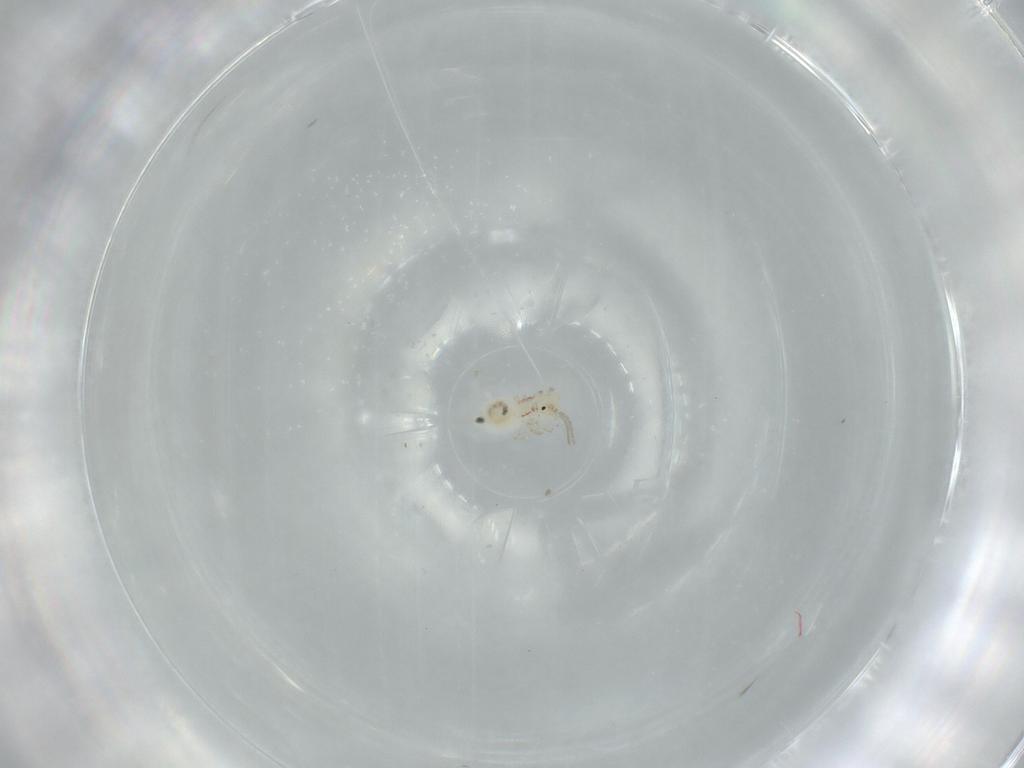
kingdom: Animalia
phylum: Arthropoda
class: Insecta
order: Psocodea
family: Caeciliusidae
